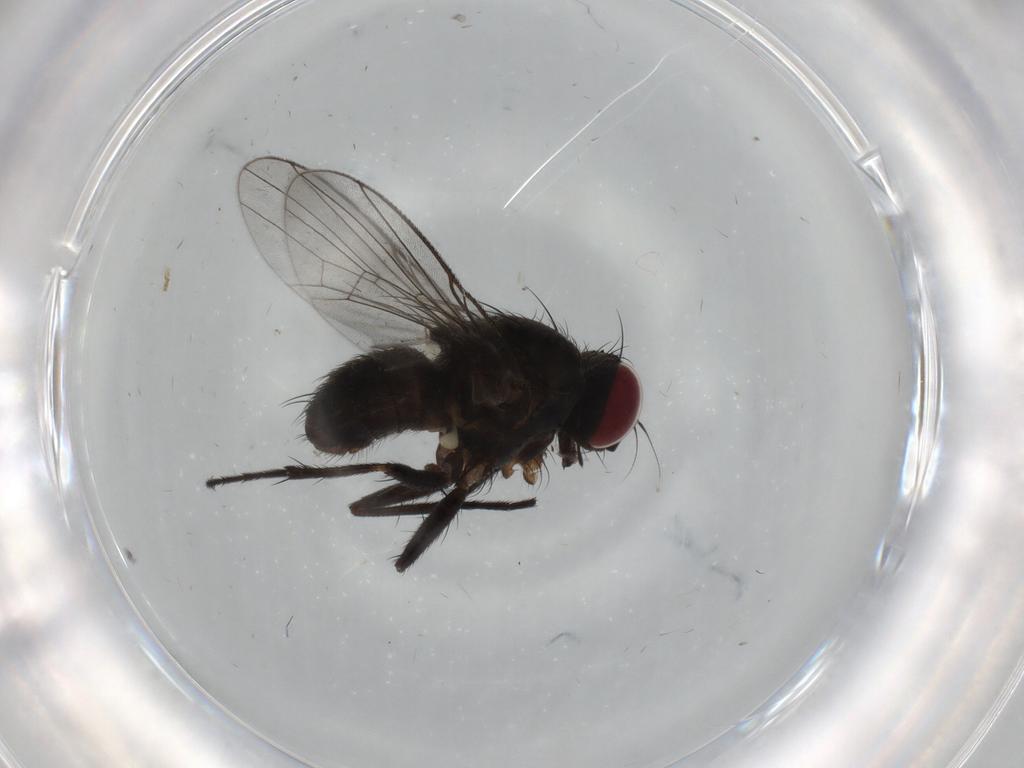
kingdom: Animalia
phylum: Arthropoda
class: Insecta
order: Diptera
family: Muscidae
